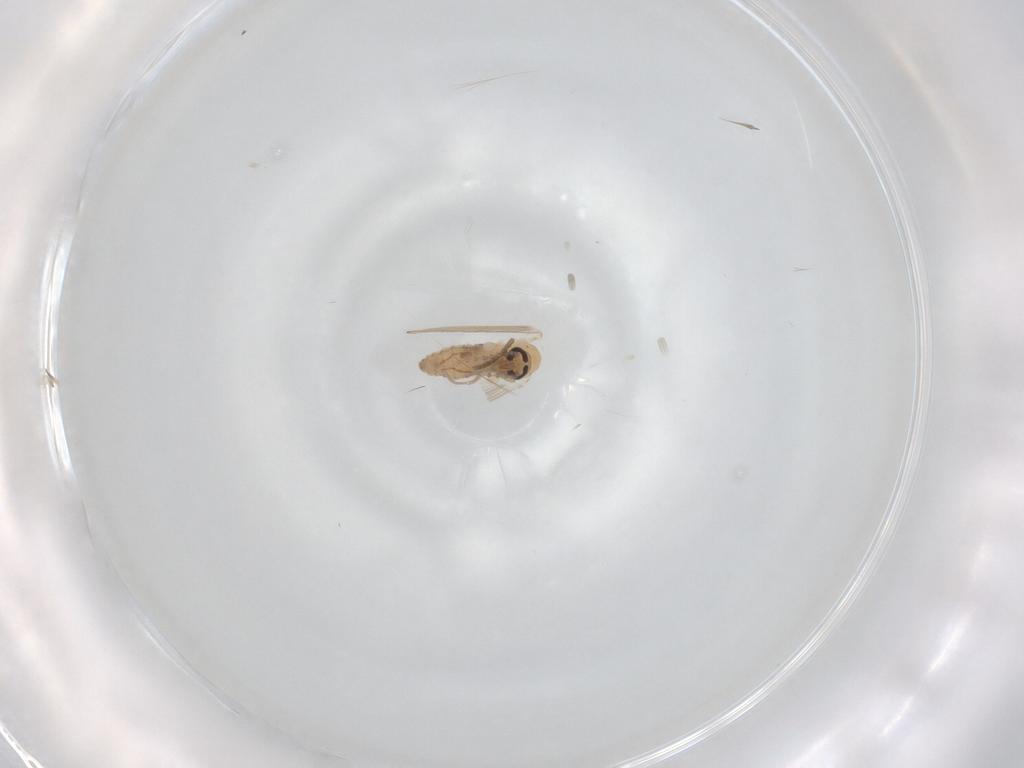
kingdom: Animalia
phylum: Arthropoda
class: Insecta
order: Diptera
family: Psychodidae
